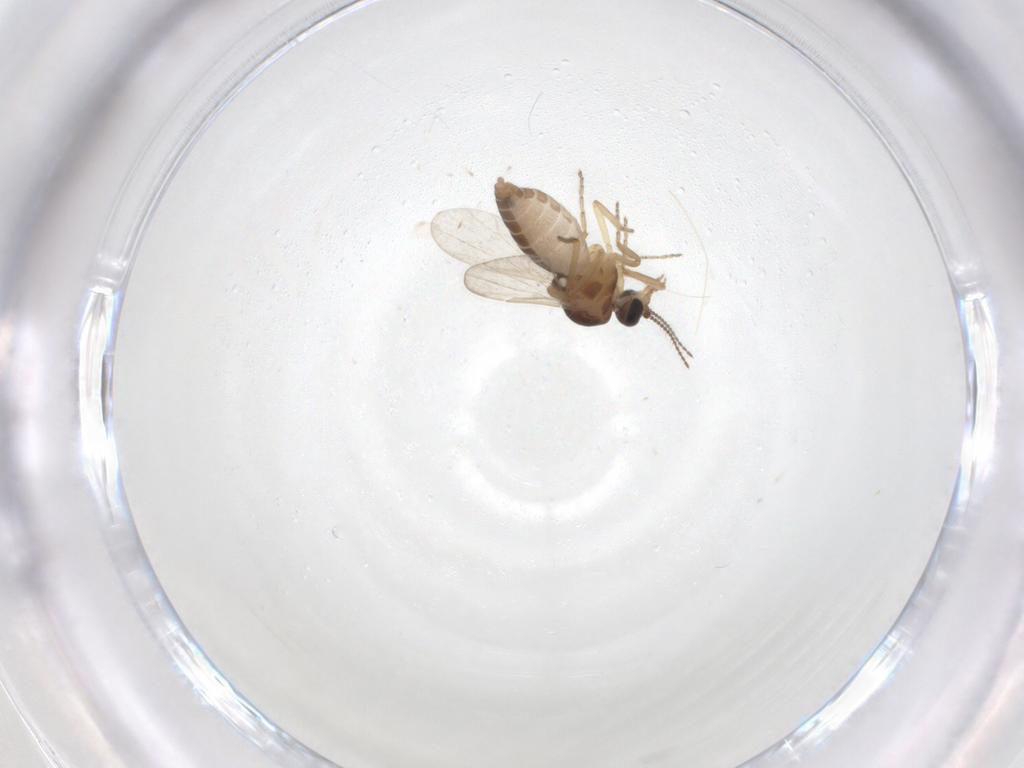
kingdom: Animalia
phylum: Arthropoda
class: Insecta
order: Diptera
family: Ceratopogonidae
